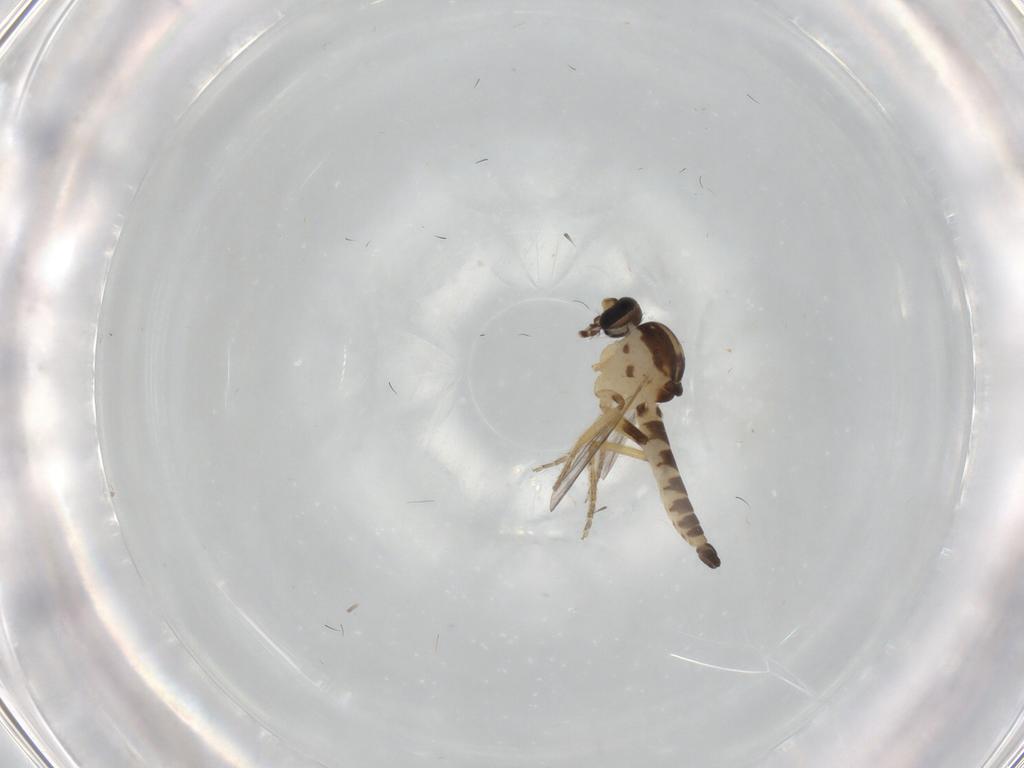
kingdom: Animalia
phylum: Arthropoda
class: Insecta
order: Diptera
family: Ceratopogonidae
